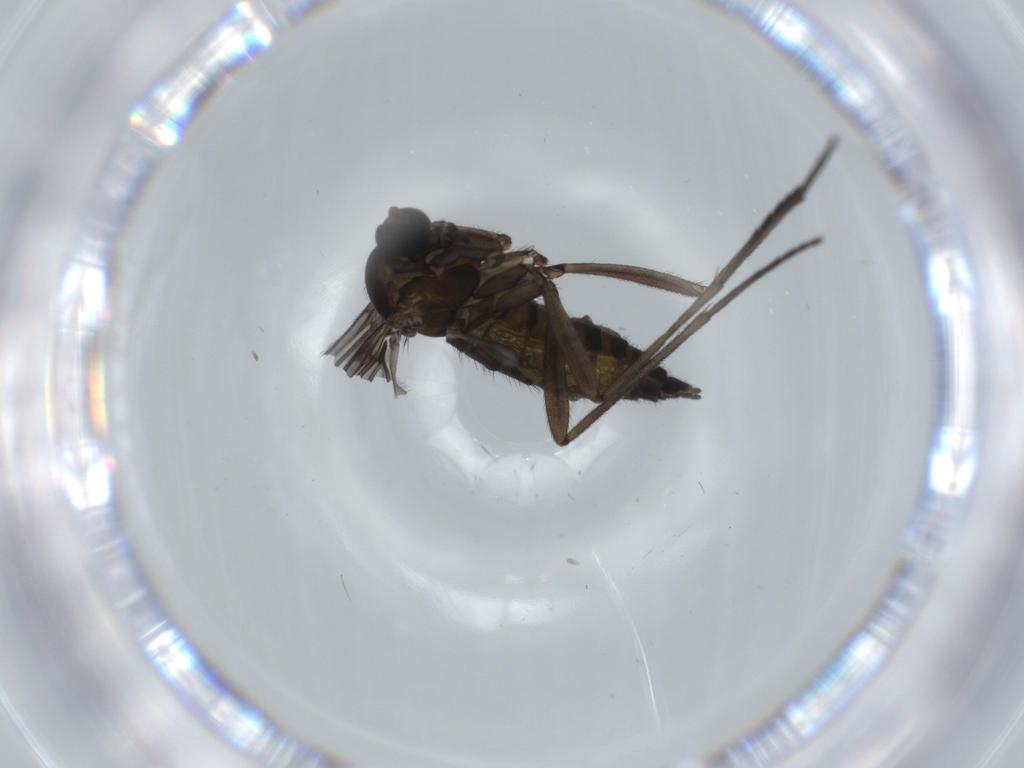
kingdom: Animalia
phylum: Arthropoda
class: Insecta
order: Diptera
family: Sciaridae
